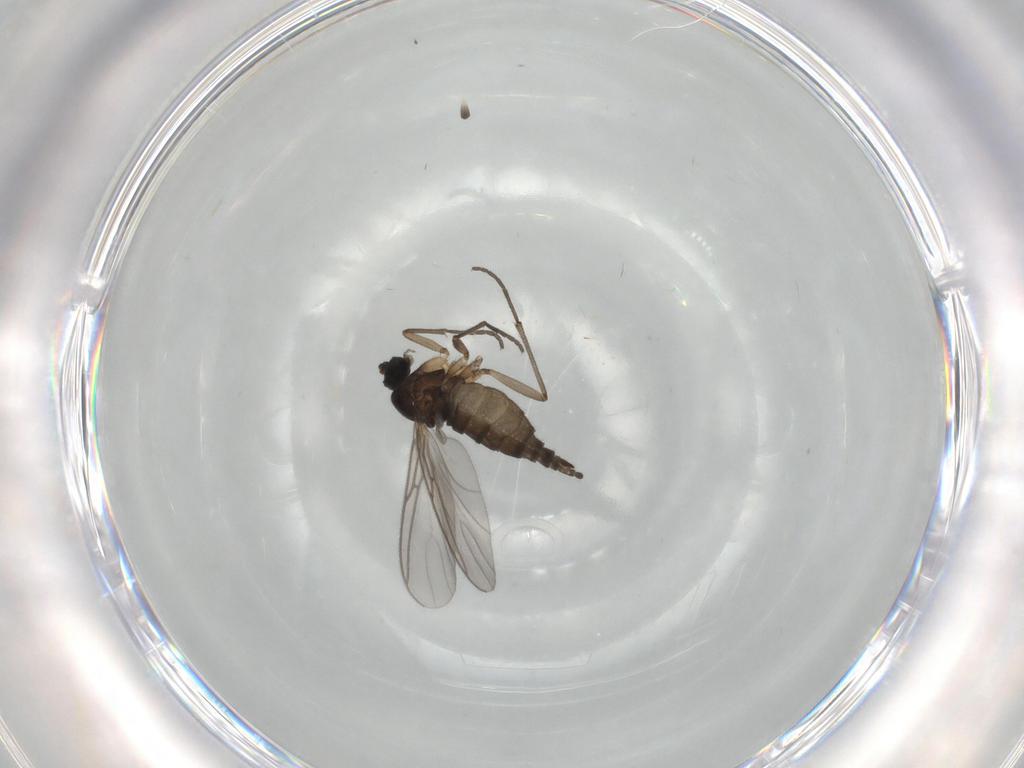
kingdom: Animalia
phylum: Arthropoda
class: Insecta
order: Diptera
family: Sciaridae
